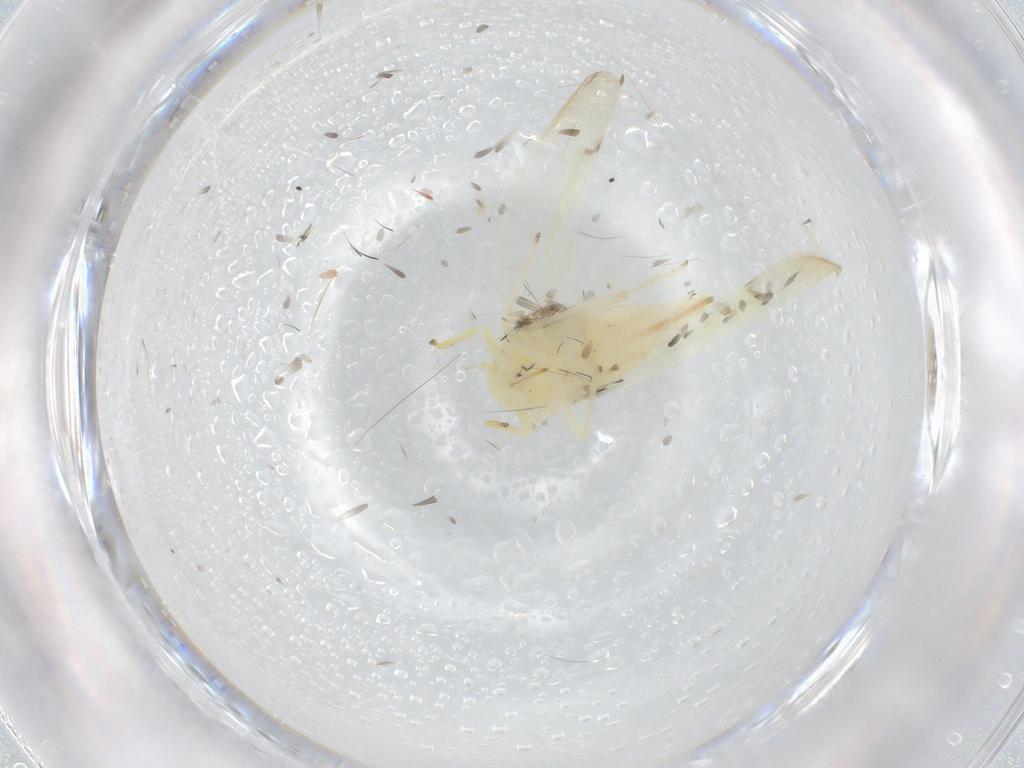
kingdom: Animalia
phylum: Arthropoda
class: Insecta
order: Hemiptera
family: Cicadellidae
